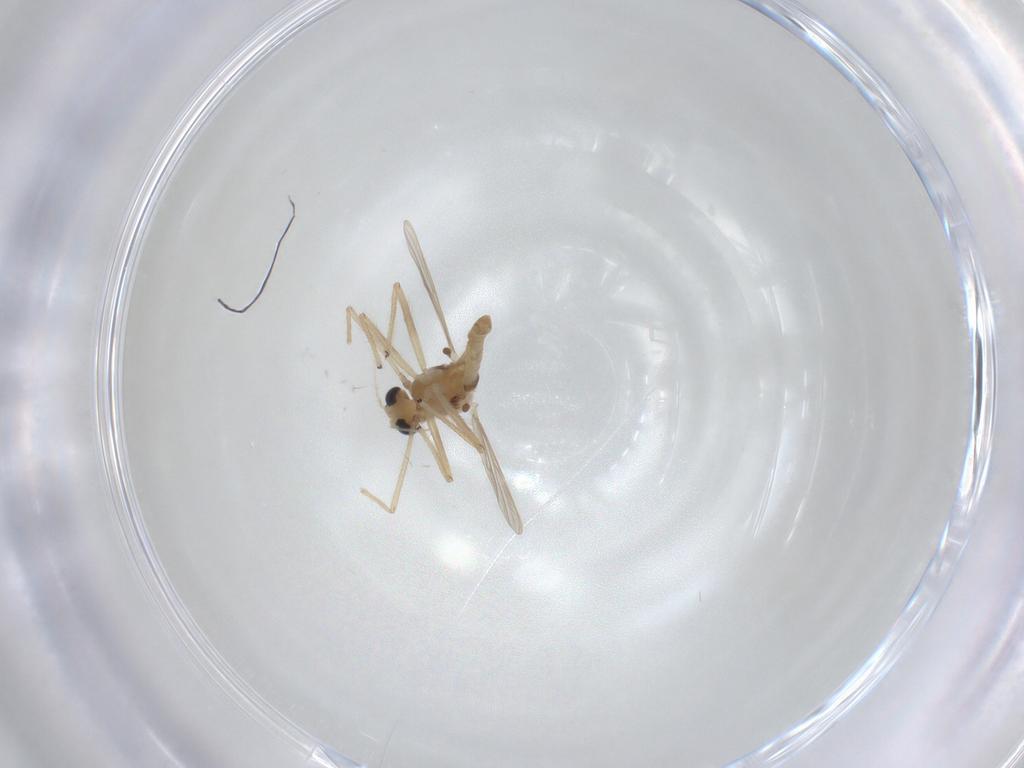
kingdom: Animalia
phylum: Arthropoda
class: Insecta
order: Diptera
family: Chironomidae
